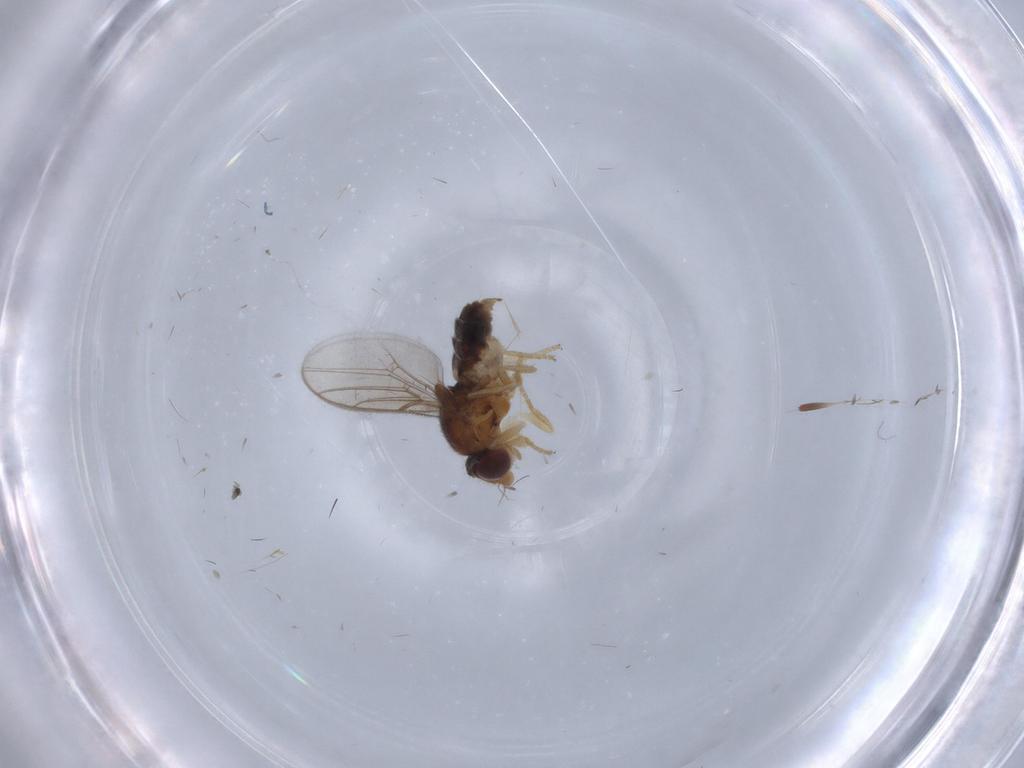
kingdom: Animalia
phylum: Arthropoda
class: Insecta
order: Diptera
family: Chloropidae
